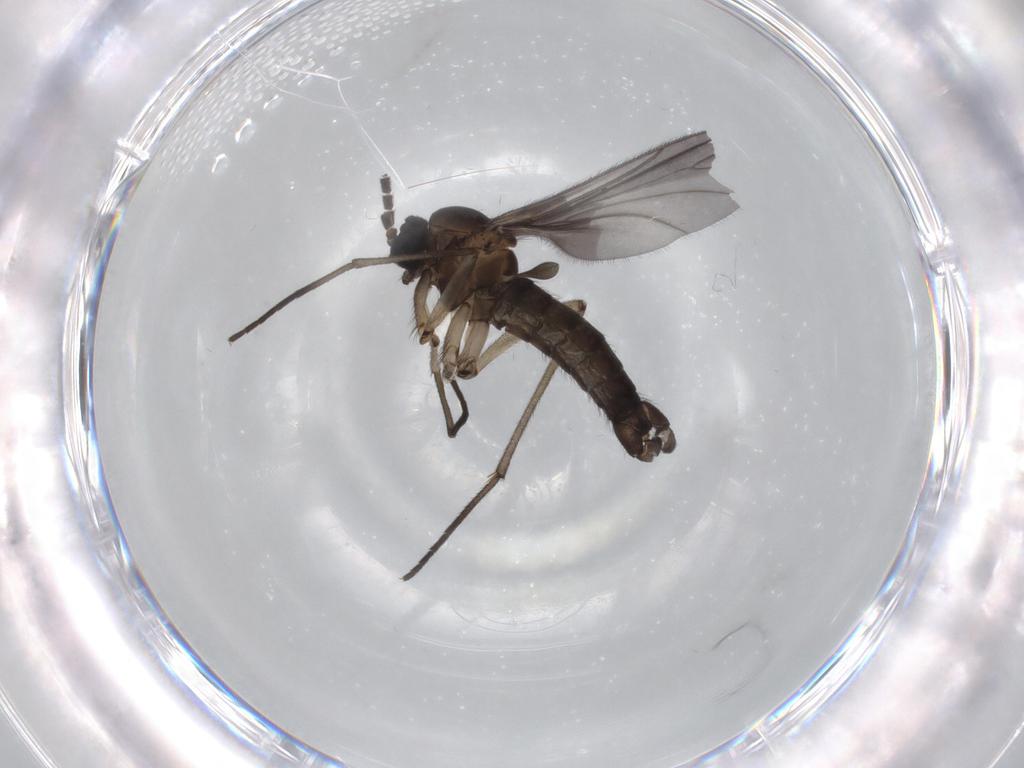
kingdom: Animalia
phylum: Arthropoda
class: Insecta
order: Diptera
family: Sciaridae
